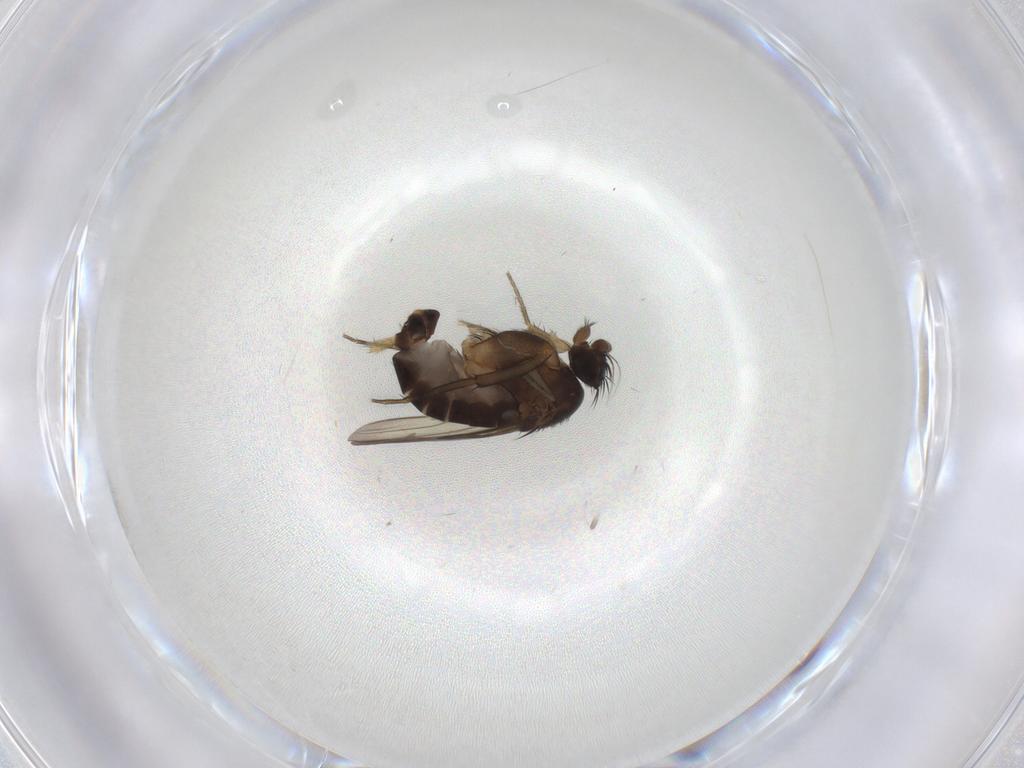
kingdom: Animalia
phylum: Arthropoda
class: Insecta
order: Diptera
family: Phoridae
